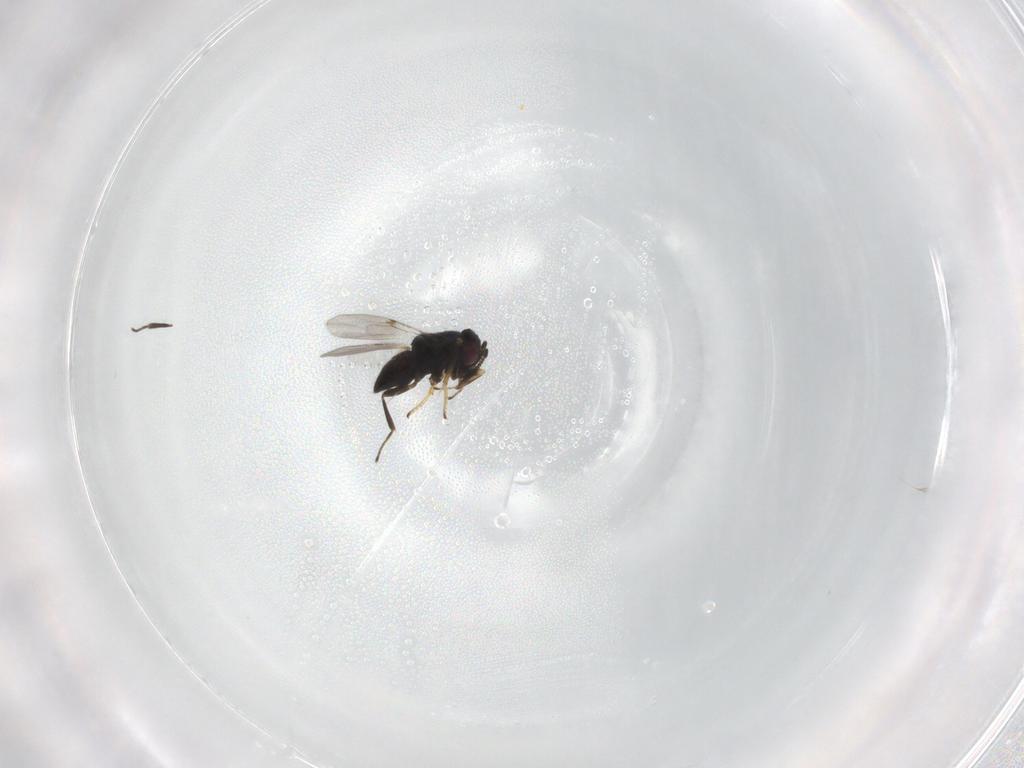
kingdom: Animalia
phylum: Arthropoda
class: Insecta
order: Hymenoptera
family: Encyrtidae
